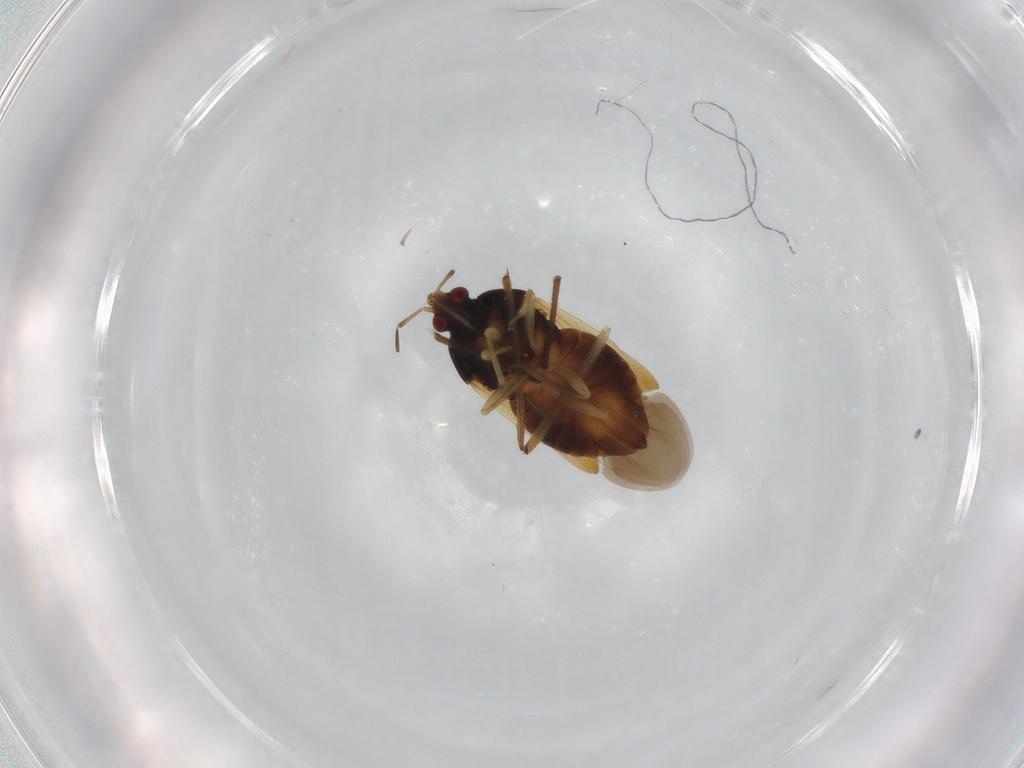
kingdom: Animalia
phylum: Arthropoda
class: Insecta
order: Hemiptera
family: Anthocoridae
